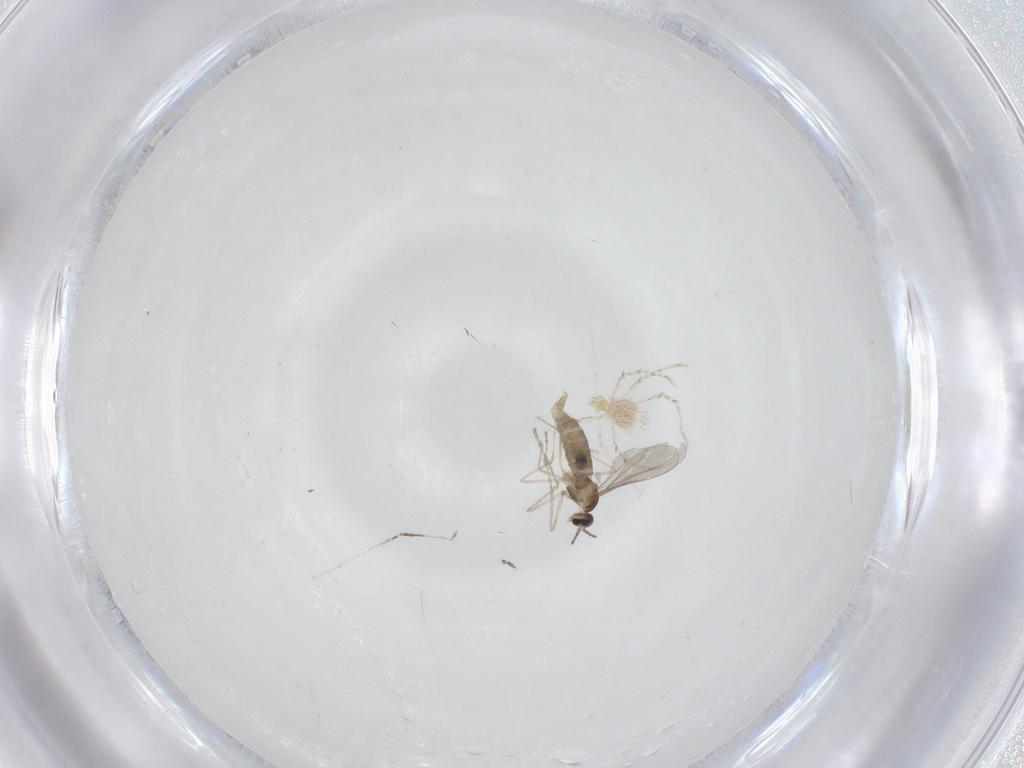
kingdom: Animalia
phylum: Arthropoda
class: Arachnida
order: Trombidiformes
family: Erythraeidae
